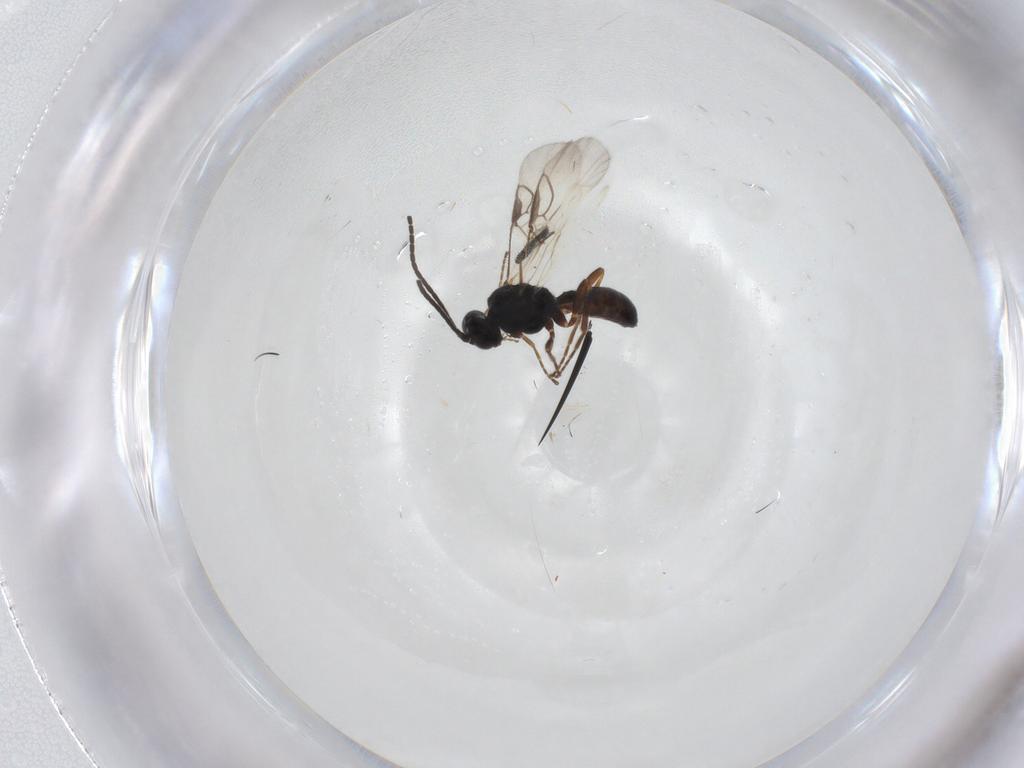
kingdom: Animalia
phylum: Arthropoda
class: Insecta
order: Hymenoptera
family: Braconidae
